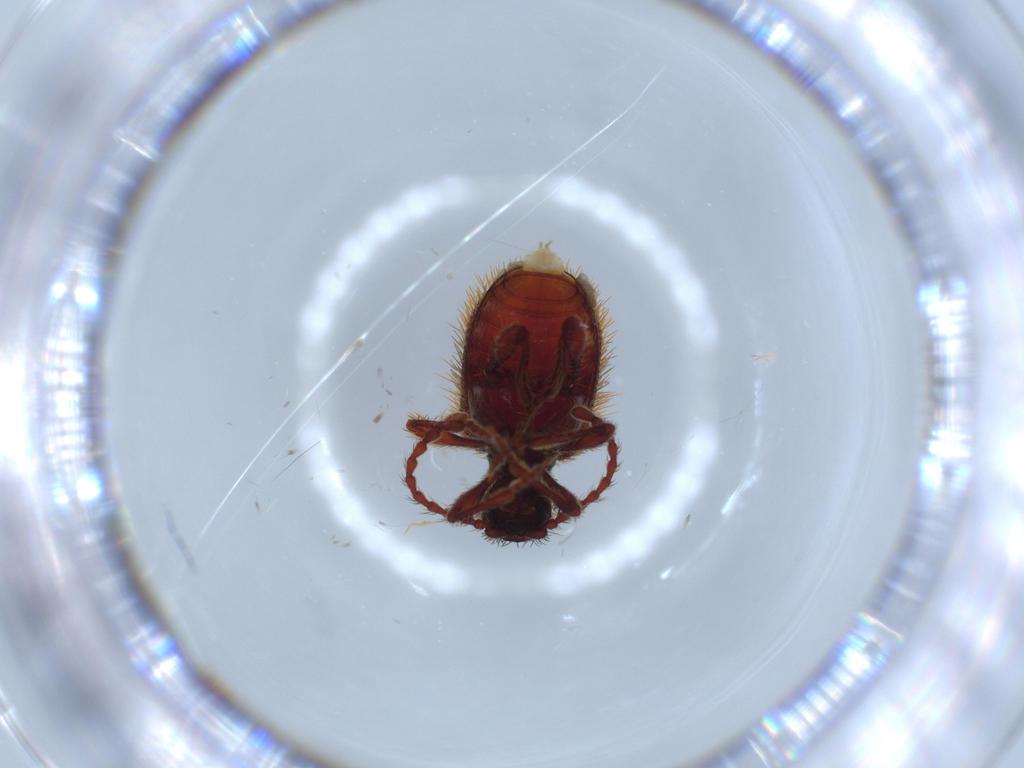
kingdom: Animalia
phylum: Arthropoda
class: Insecta
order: Coleoptera
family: Ptinidae
